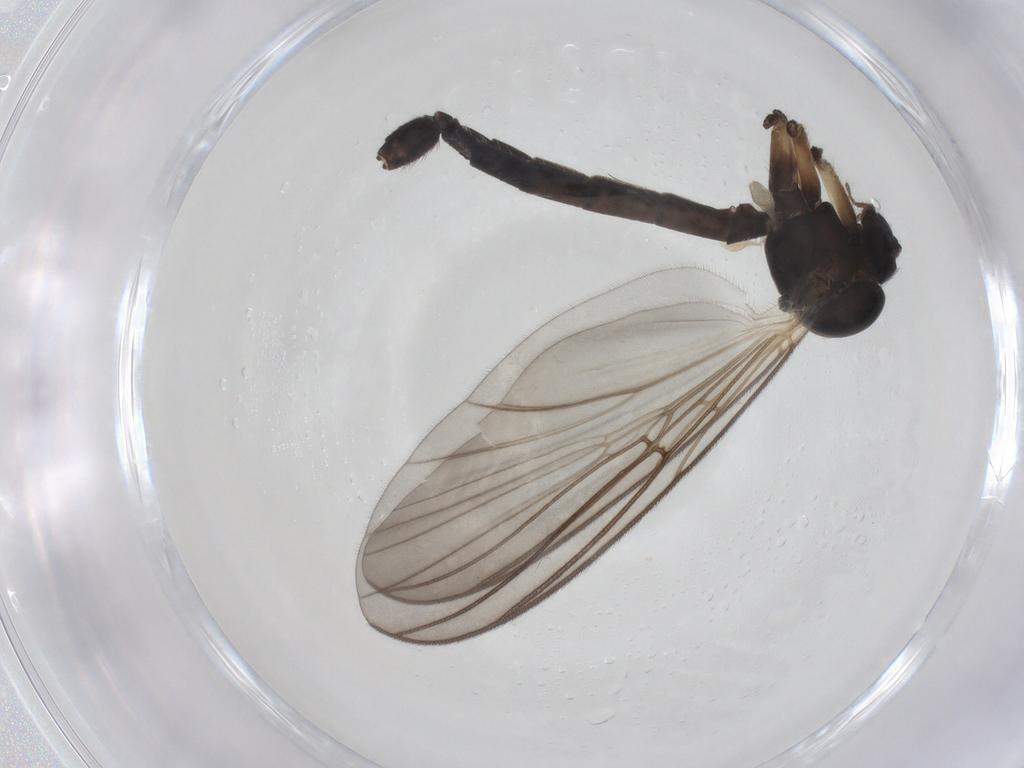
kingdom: Animalia
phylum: Arthropoda
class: Insecta
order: Diptera
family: Mycetophilidae
